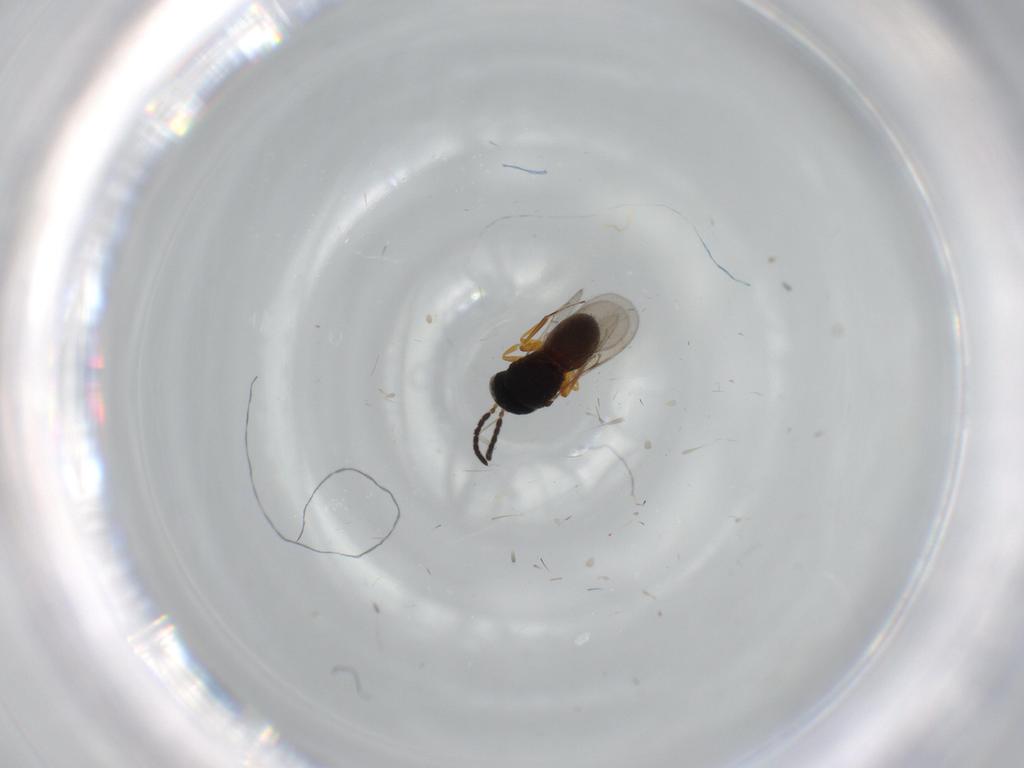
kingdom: Animalia
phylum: Arthropoda
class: Insecta
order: Hymenoptera
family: Scelionidae
